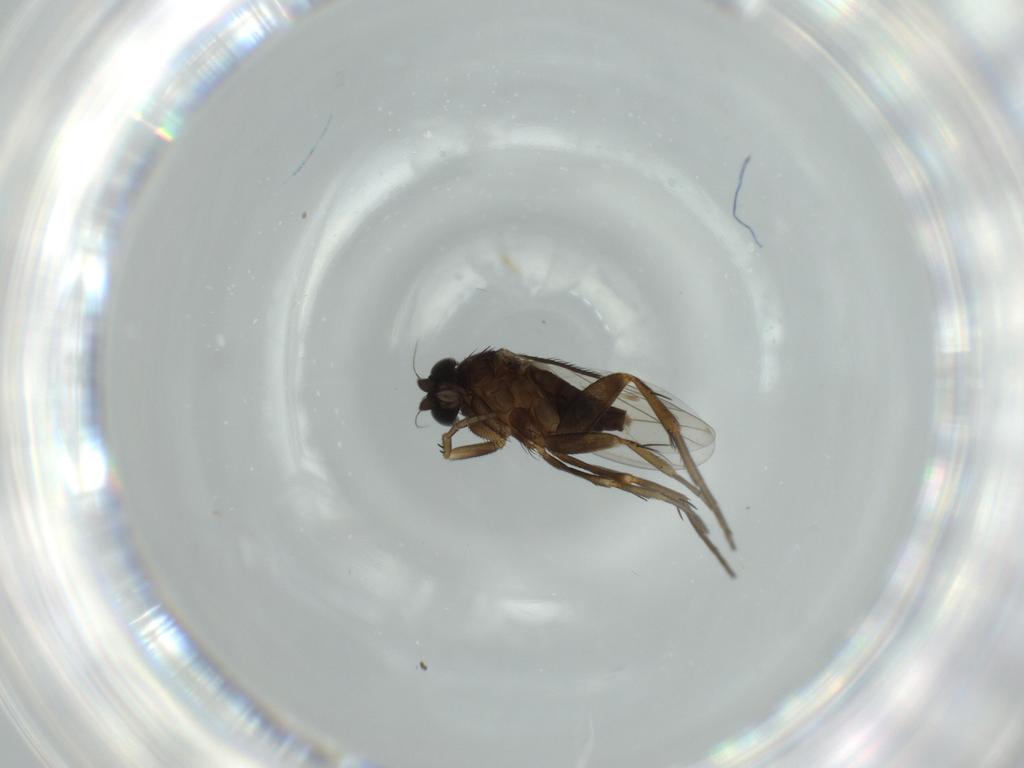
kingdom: Animalia
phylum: Arthropoda
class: Insecta
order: Diptera
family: Phoridae
